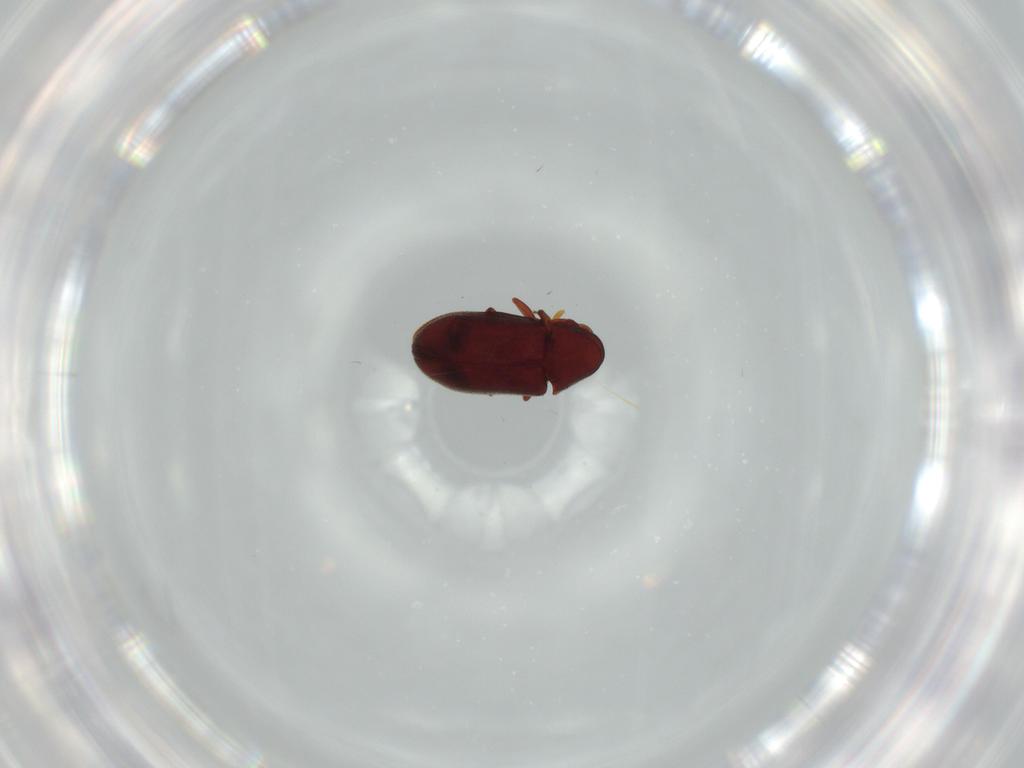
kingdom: Animalia
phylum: Arthropoda
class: Insecta
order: Coleoptera
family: Ptinidae
